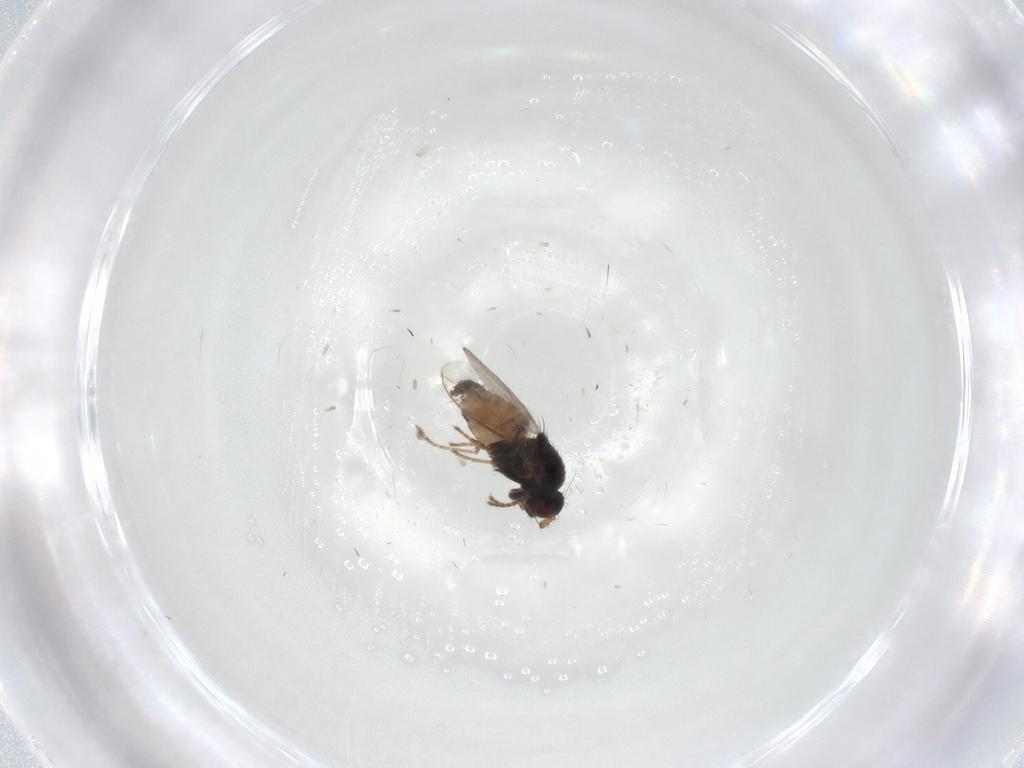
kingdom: Animalia
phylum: Arthropoda
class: Insecta
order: Diptera
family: Sphaeroceridae
